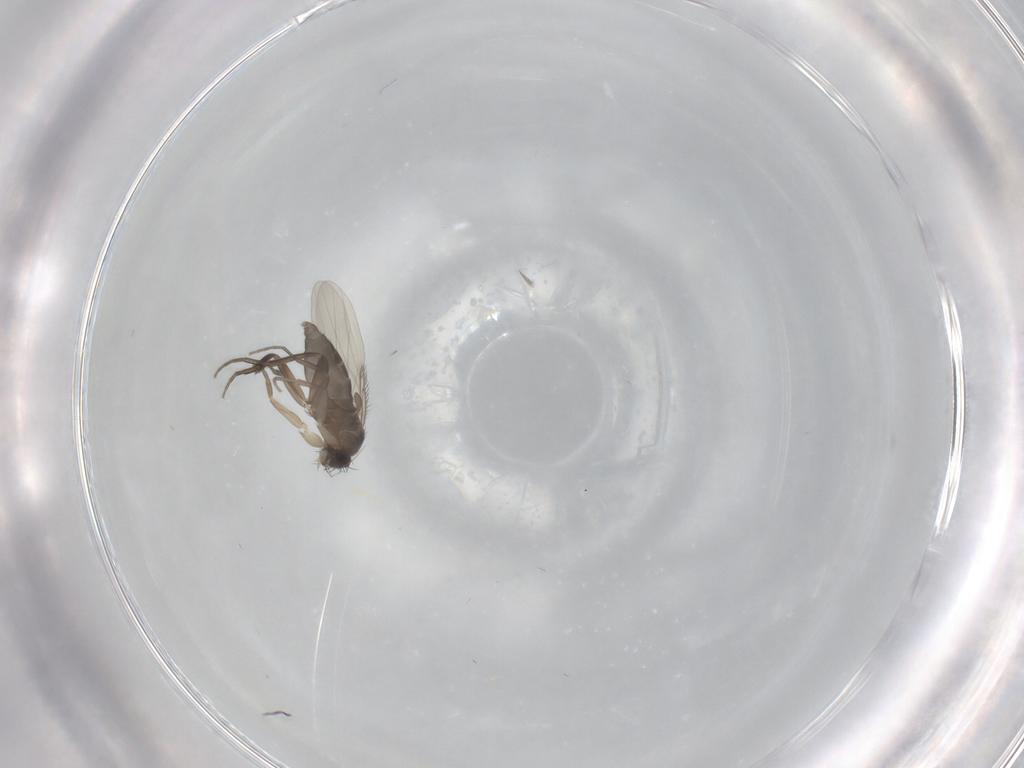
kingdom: Animalia
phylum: Arthropoda
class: Insecta
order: Diptera
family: Phoridae
